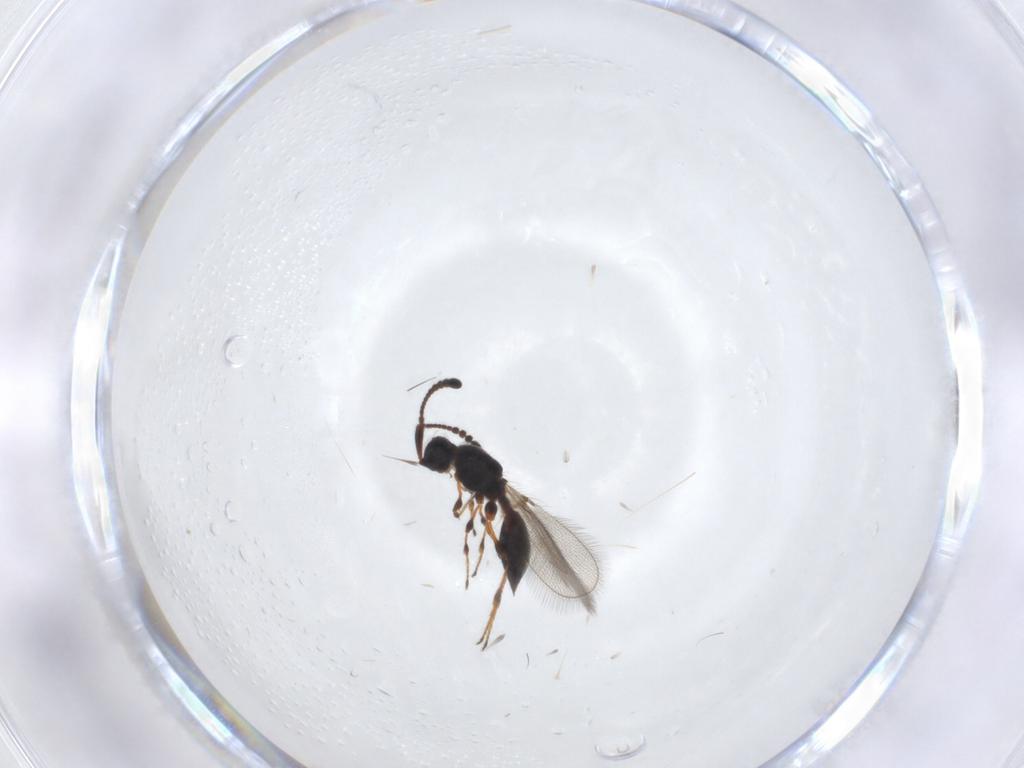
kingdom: Animalia
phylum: Arthropoda
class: Insecta
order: Hymenoptera
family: Diapriidae
